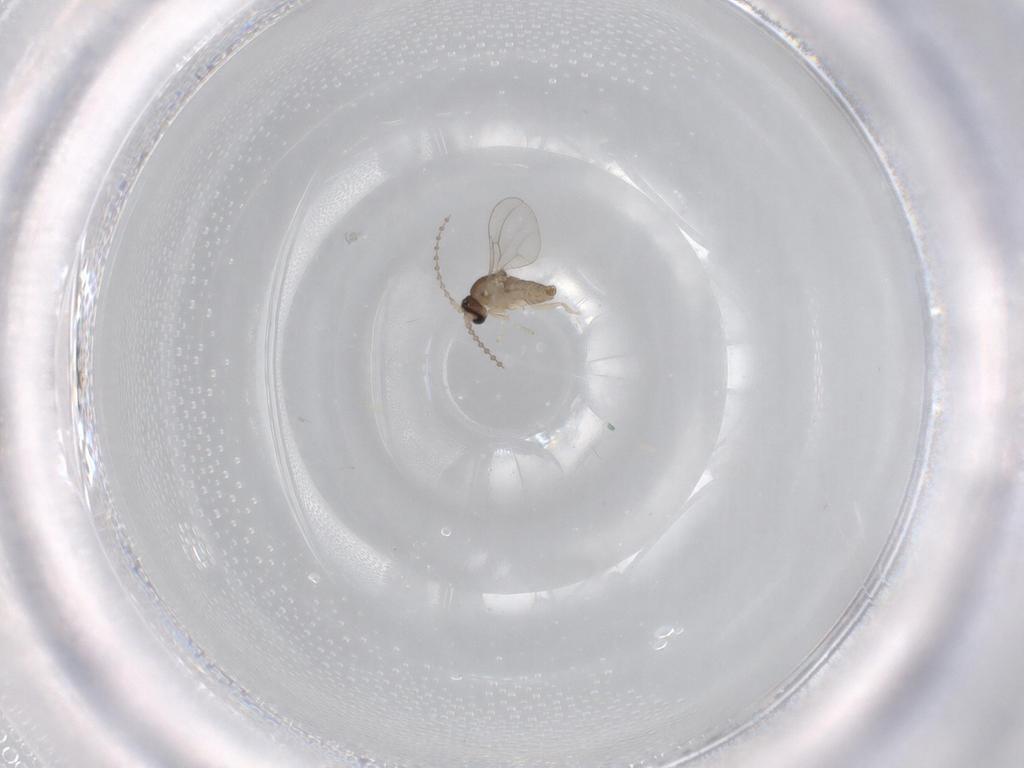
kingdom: Animalia
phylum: Arthropoda
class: Insecta
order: Diptera
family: Cecidomyiidae
